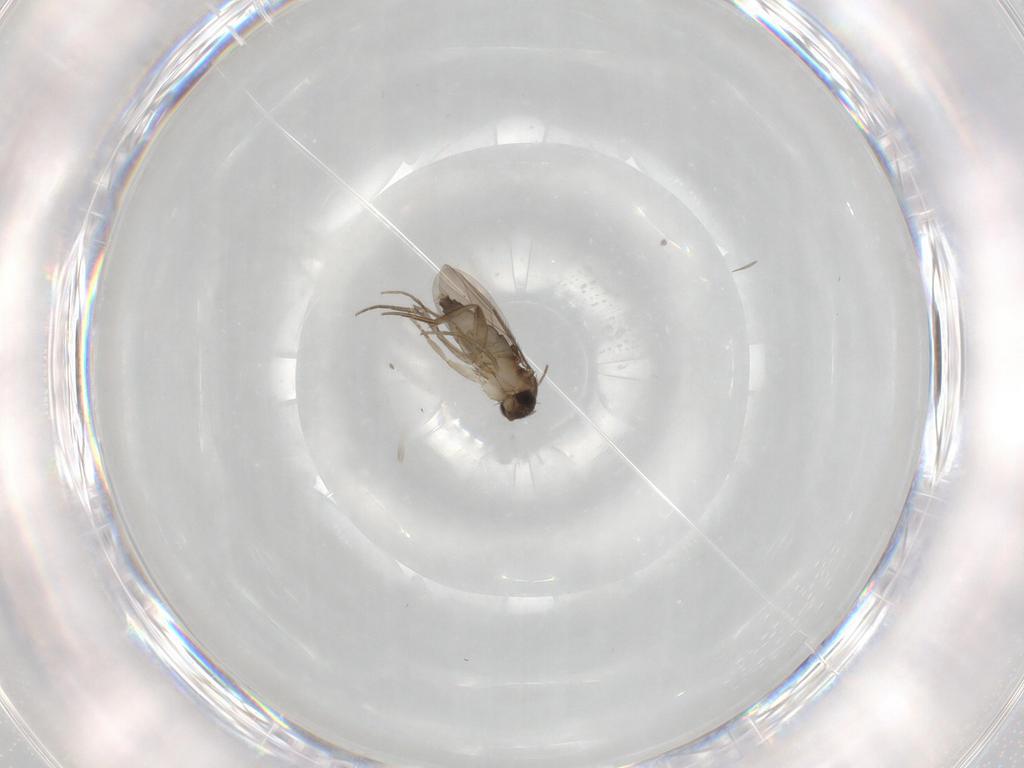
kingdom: Animalia
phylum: Arthropoda
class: Insecta
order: Diptera
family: Phoridae
